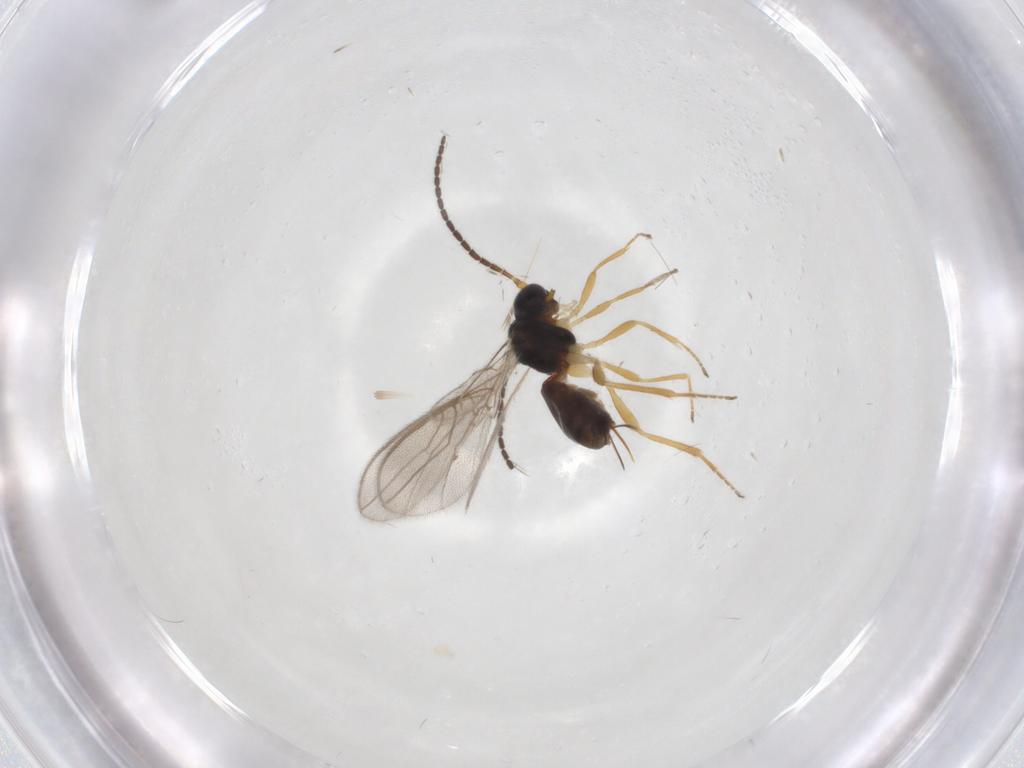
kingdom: Animalia
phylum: Arthropoda
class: Insecta
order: Hymenoptera
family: Braconidae
